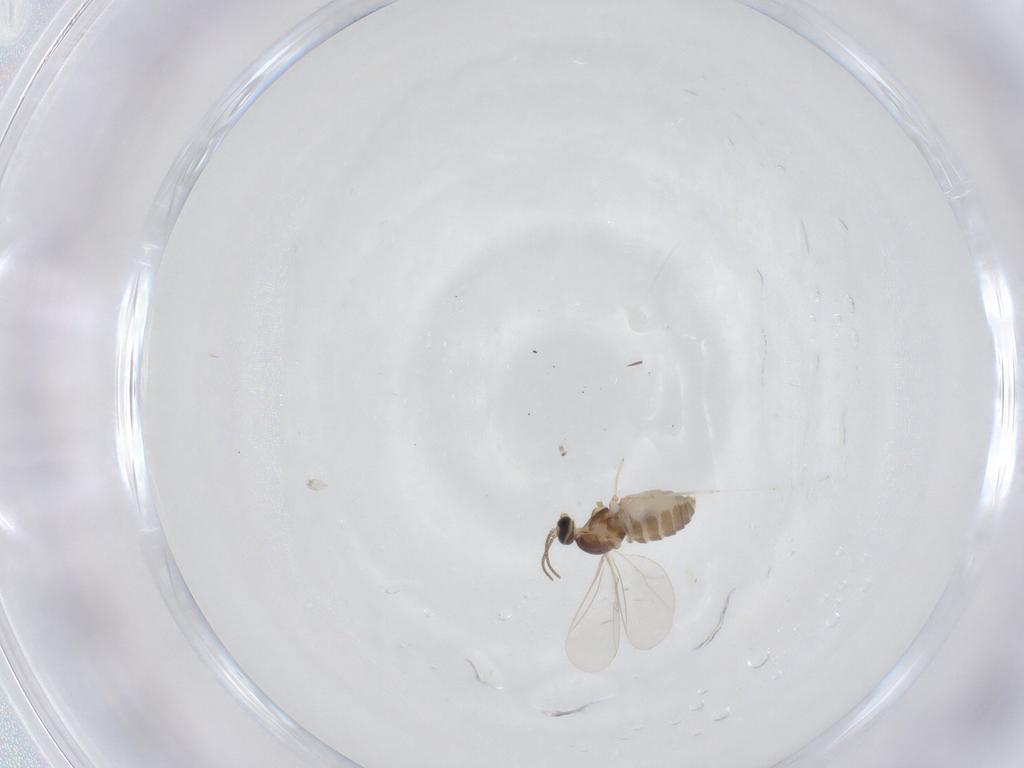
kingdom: Animalia
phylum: Arthropoda
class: Insecta
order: Diptera
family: Cecidomyiidae
